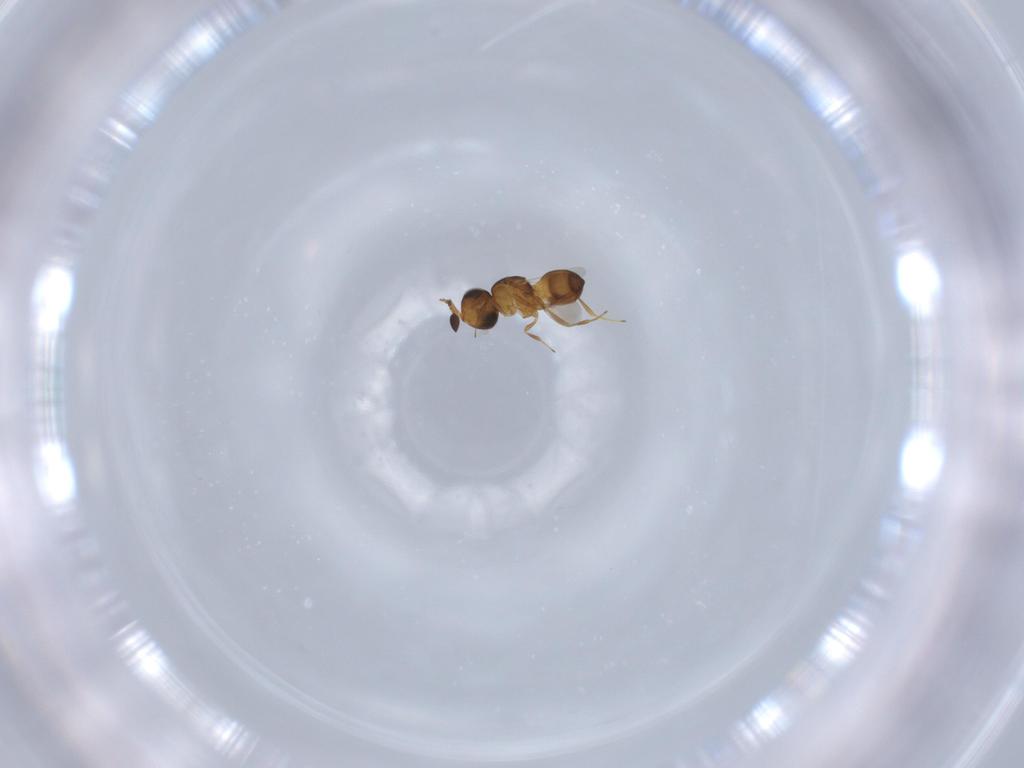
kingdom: Animalia
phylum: Arthropoda
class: Insecta
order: Hymenoptera
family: Scelionidae
